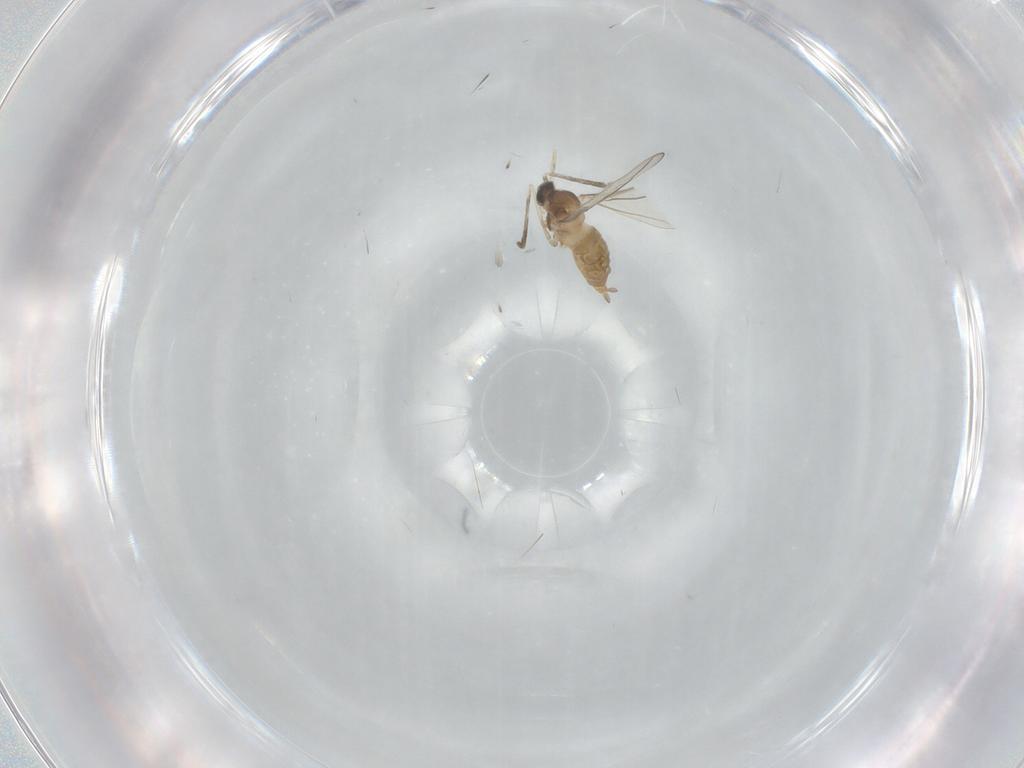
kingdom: Animalia
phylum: Arthropoda
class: Insecta
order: Diptera
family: Cecidomyiidae
